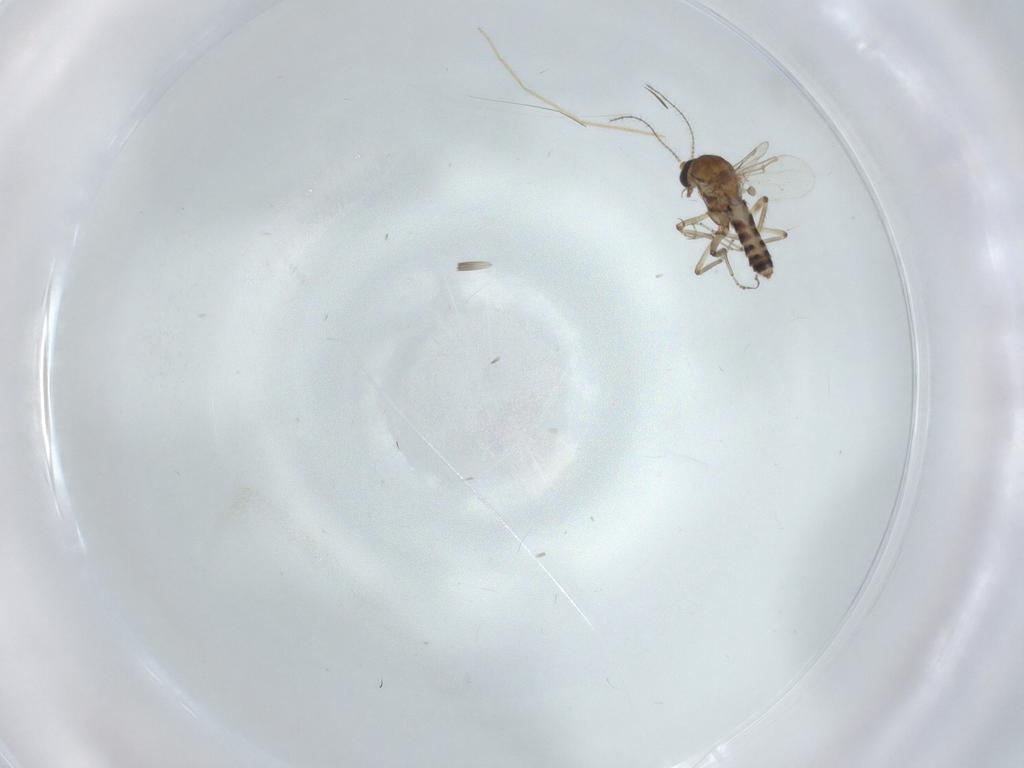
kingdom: Animalia
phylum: Arthropoda
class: Insecta
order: Diptera
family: Ceratopogonidae
